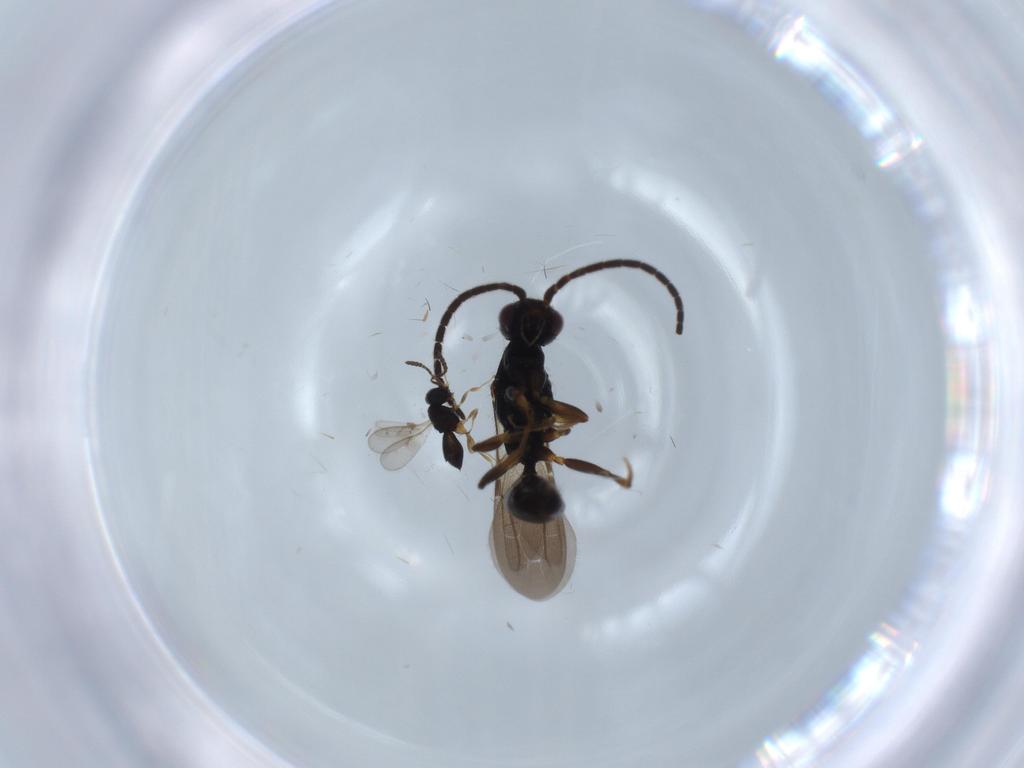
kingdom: Animalia
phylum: Arthropoda
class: Insecta
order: Hymenoptera
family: Bethylidae
